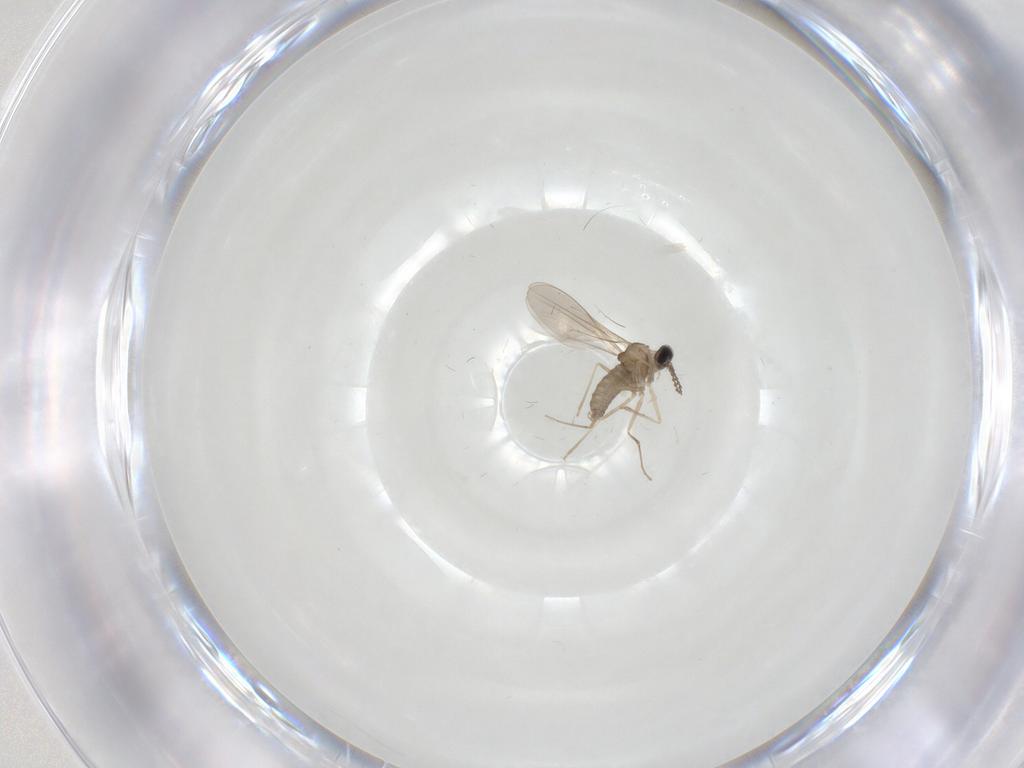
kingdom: Animalia
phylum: Arthropoda
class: Insecta
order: Diptera
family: Cecidomyiidae
